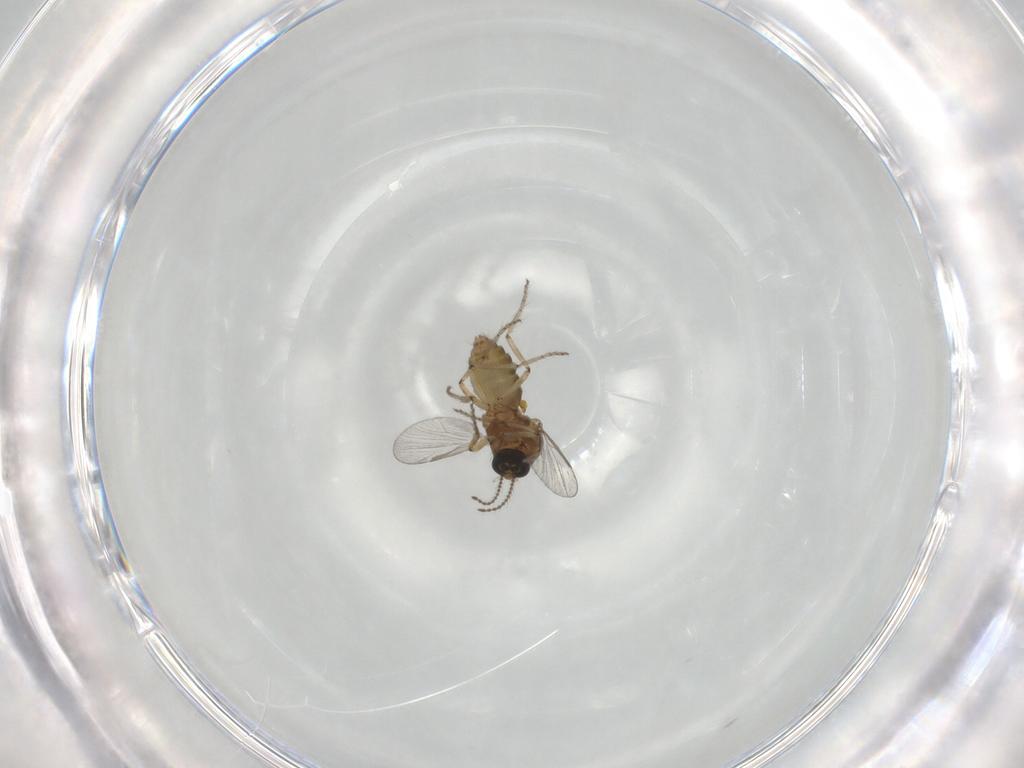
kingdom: Animalia
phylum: Arthropoda
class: Insecta
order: Diptera
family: Ceratopogonidae
